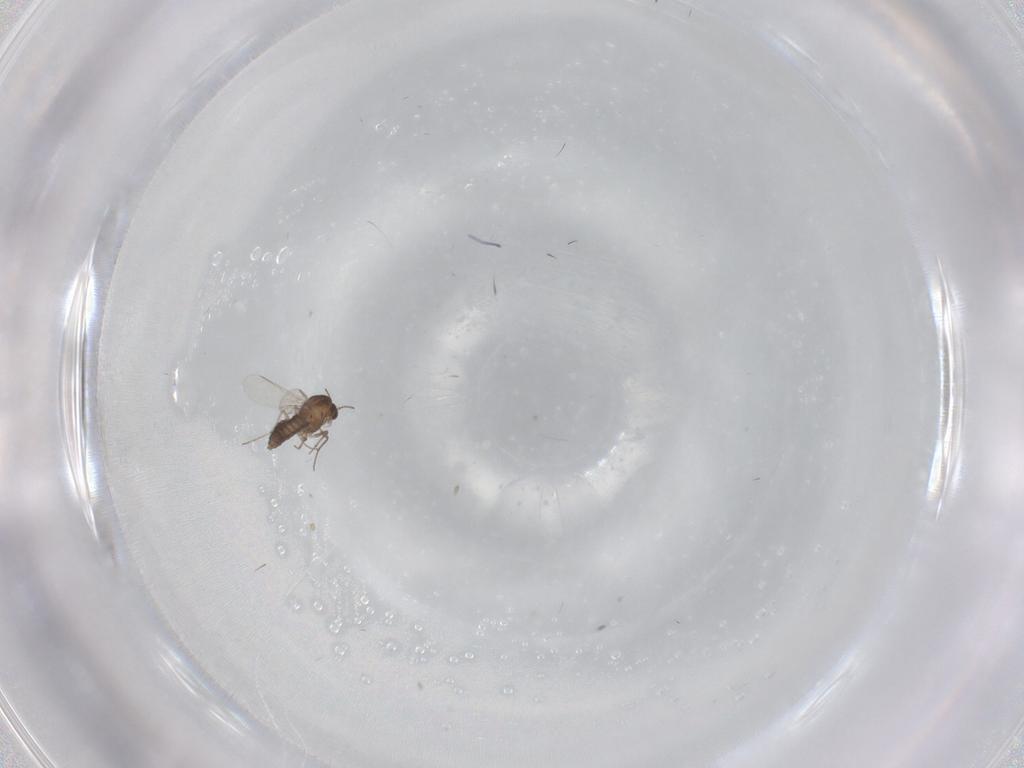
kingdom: Animalia
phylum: Arthropoda
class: Insecta
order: Diptera
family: Chironomidae
